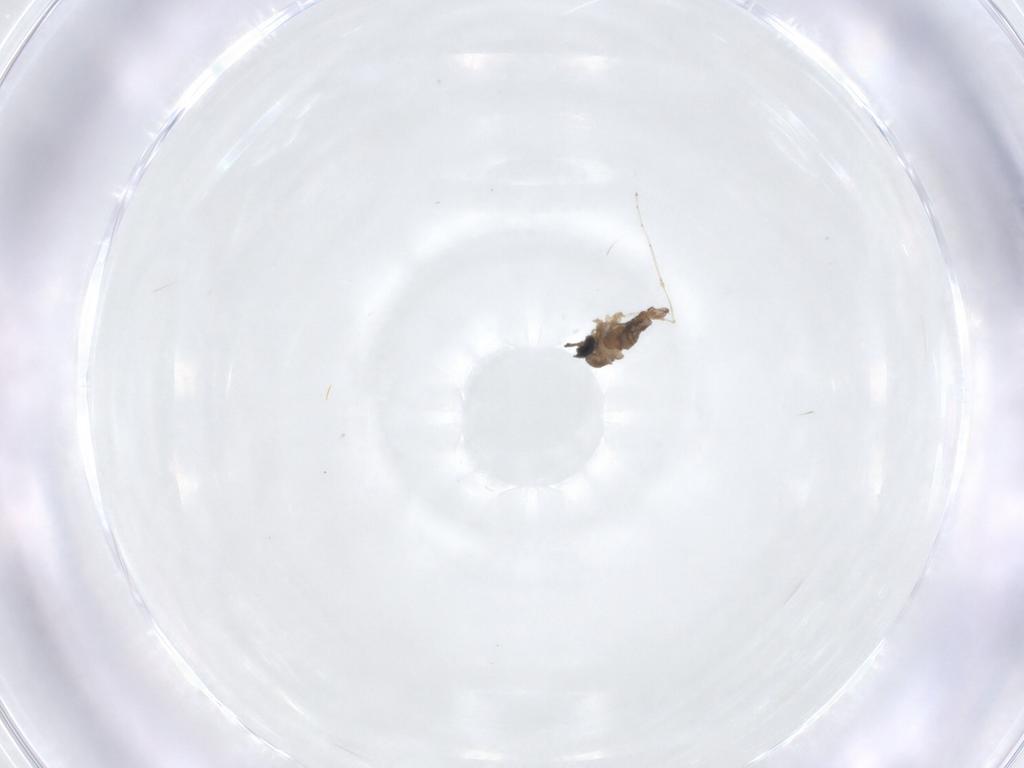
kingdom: Animalia
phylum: Arthropoda
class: Insecta
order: Diptera
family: Cecidomyiidae
